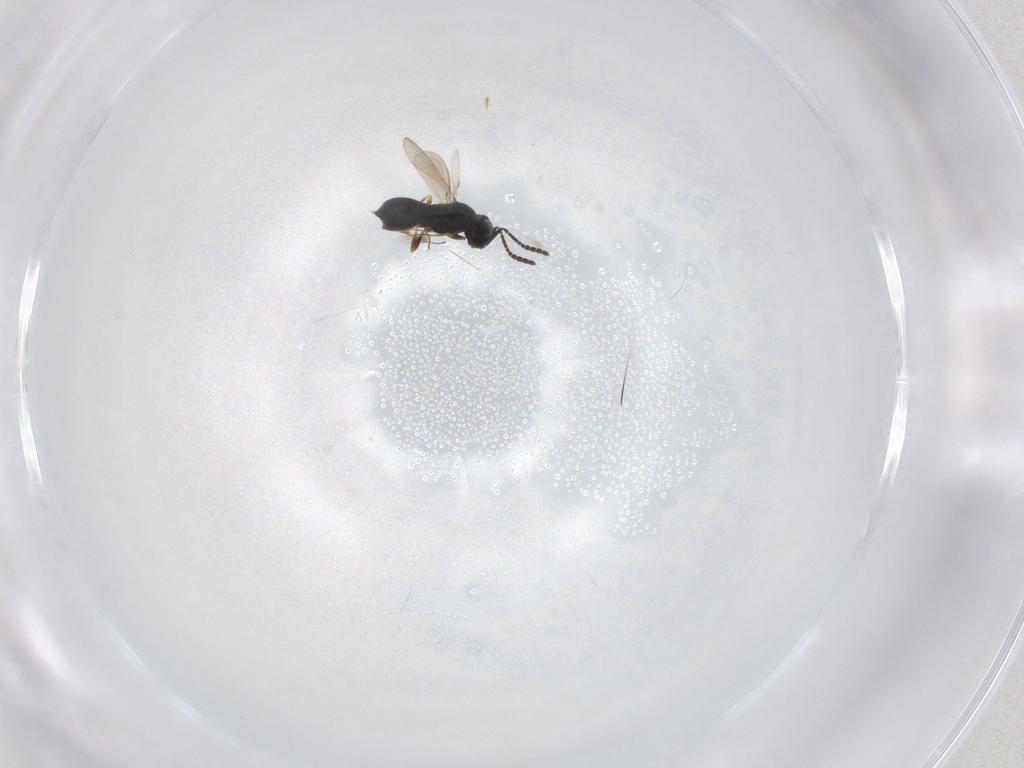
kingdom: Animalia
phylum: Arthropoda
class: Insecta
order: Hymenoptera
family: Scelionidae
